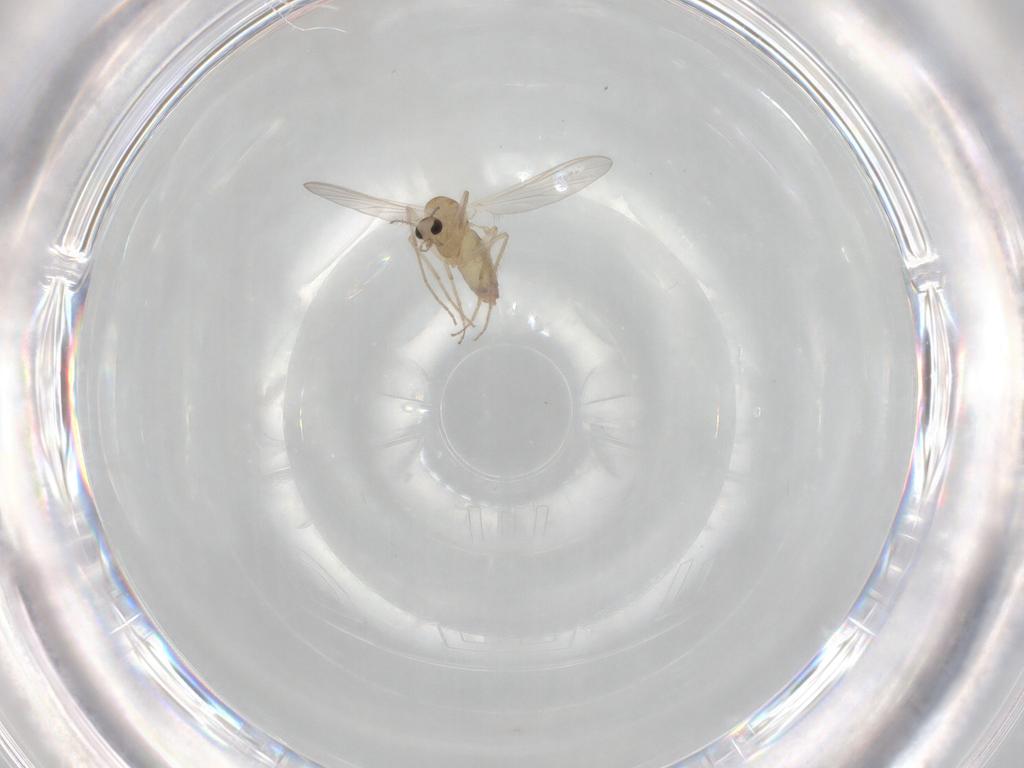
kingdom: Animalia
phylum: Arthropoda
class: Insecta
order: Diptera
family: Chironomidae
